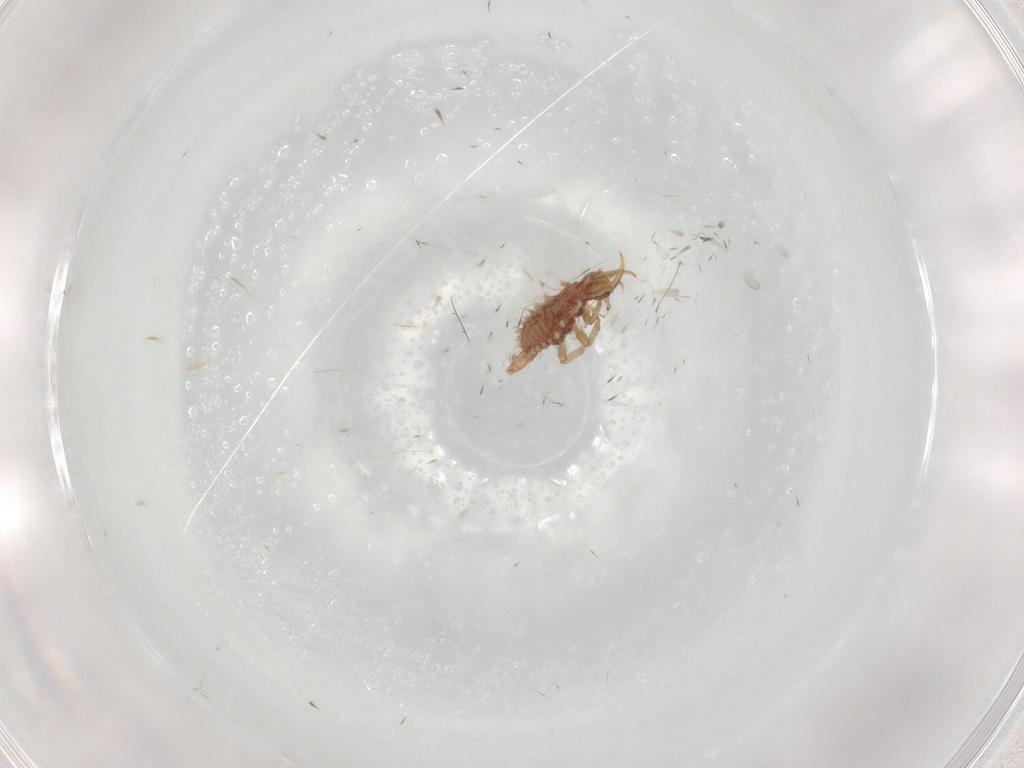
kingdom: Animalia
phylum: Arthropoda
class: Insecta
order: Neuroptera
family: Chrysopidae
